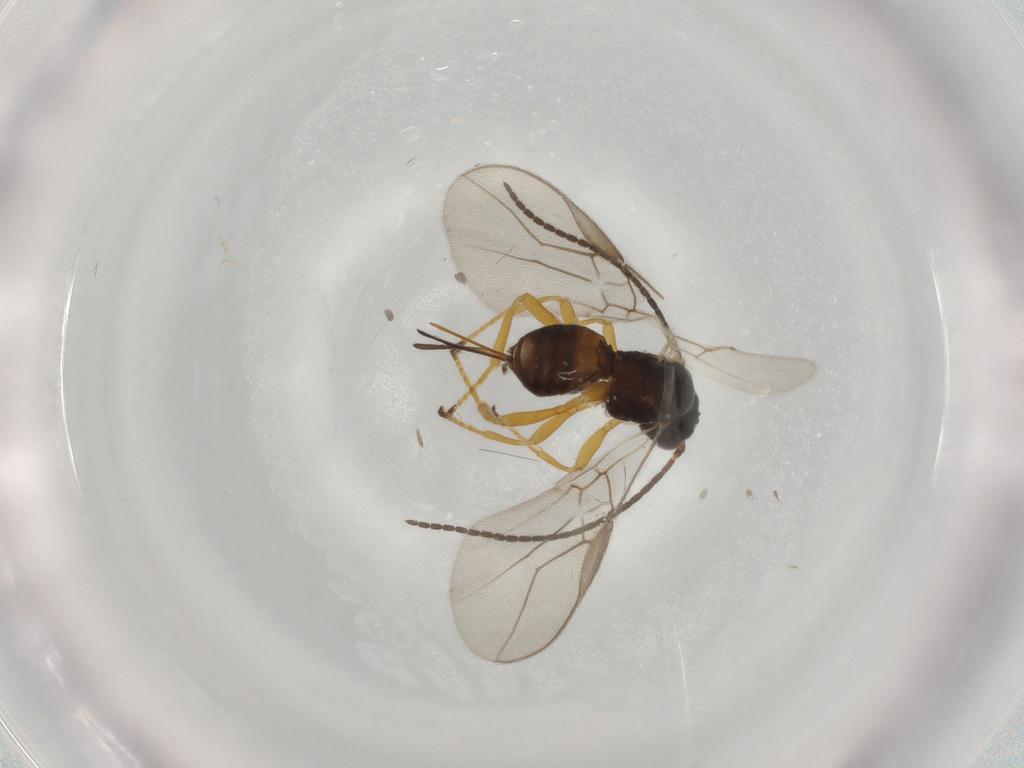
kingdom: Animalia
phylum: Arthropoda
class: Insecta
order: Hymenoptera
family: Braconidae
